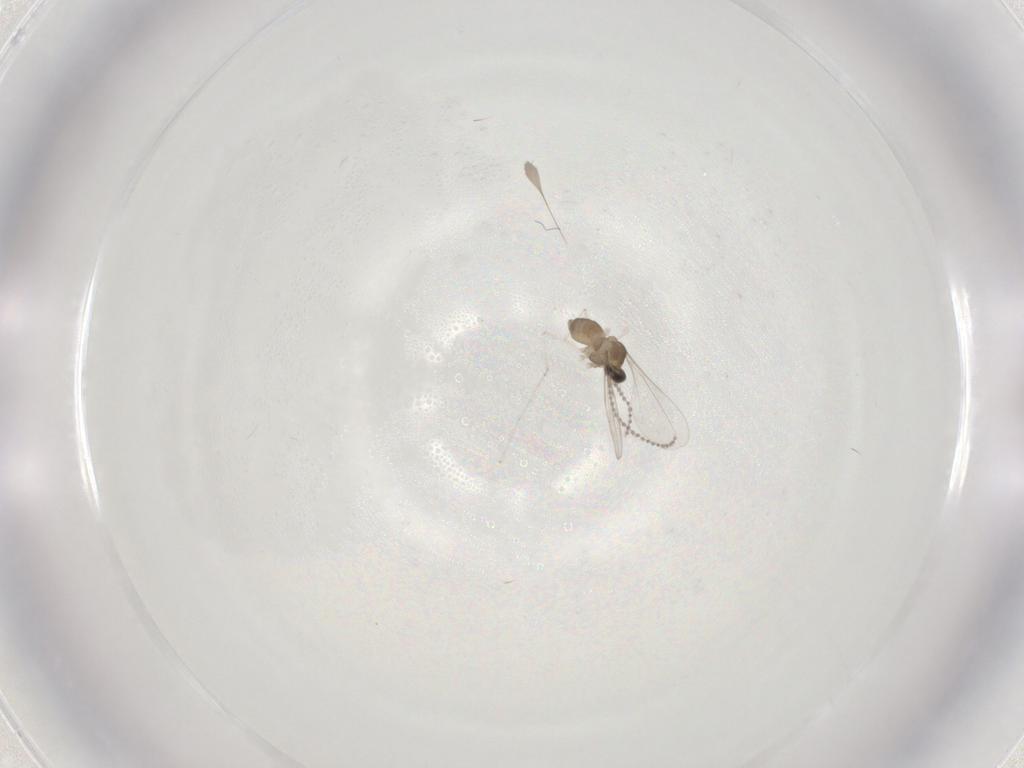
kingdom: Animalia
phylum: Arthropoda
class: Insecta
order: Diptera
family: Cecidomyiidae
